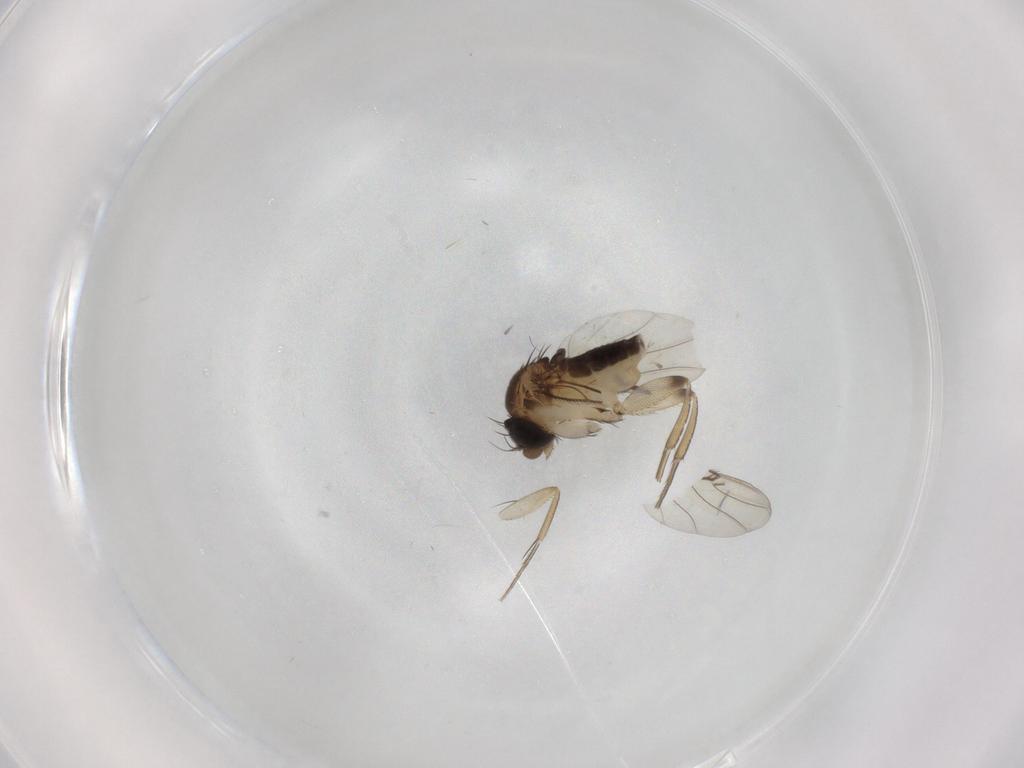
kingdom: Animalia
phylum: Arthropoda
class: Insecta
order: Diptera
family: Phoridae
